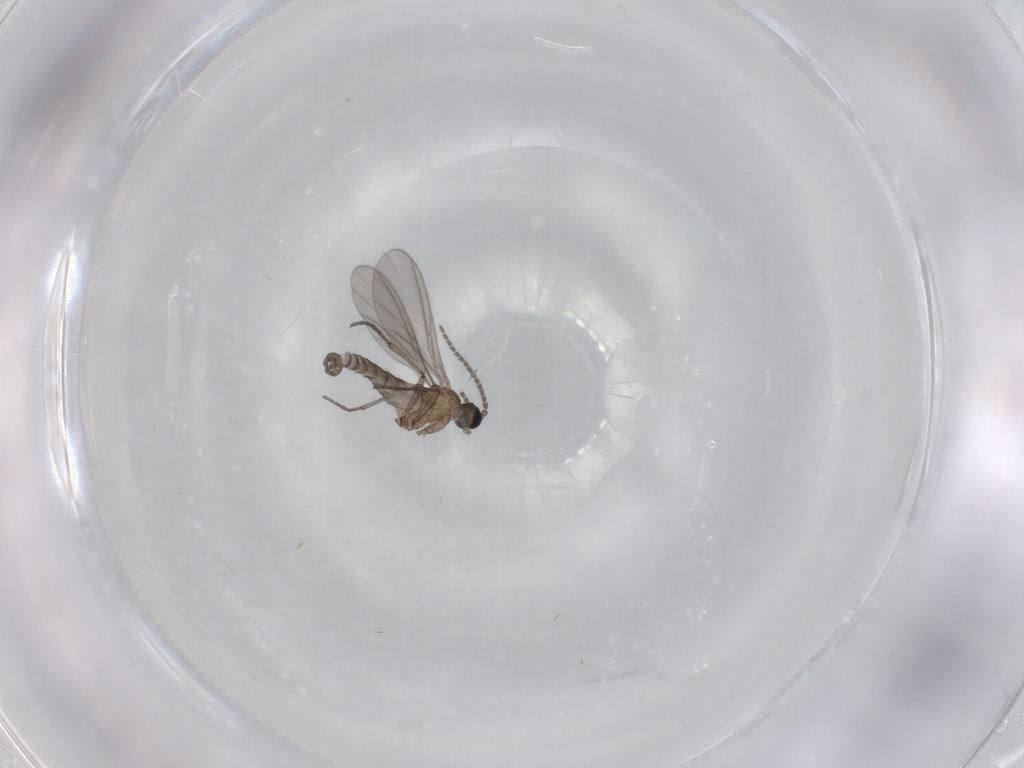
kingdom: Animalia
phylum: Arthropoda
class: Insecta
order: Diptera
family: Sciaridae
